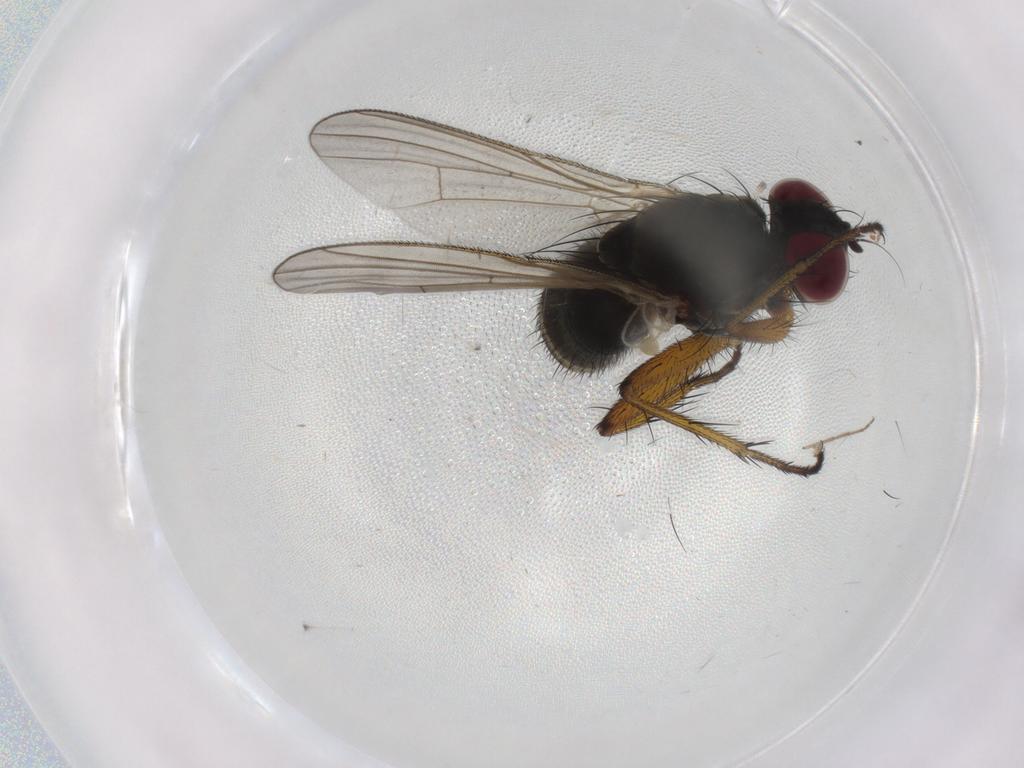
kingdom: Animalia
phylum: Arthropoda
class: Insecta
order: Diptera
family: Muscidae
